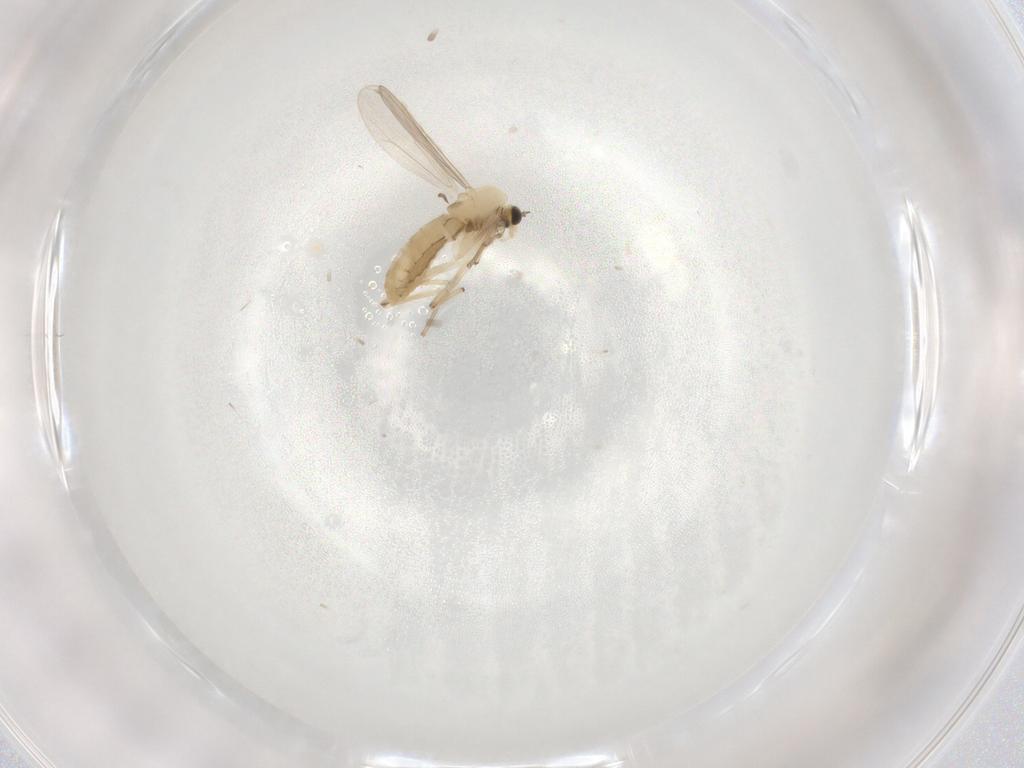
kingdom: Animalia
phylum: Arthropoda
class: Insecta
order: Diptera
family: Chironomidae
